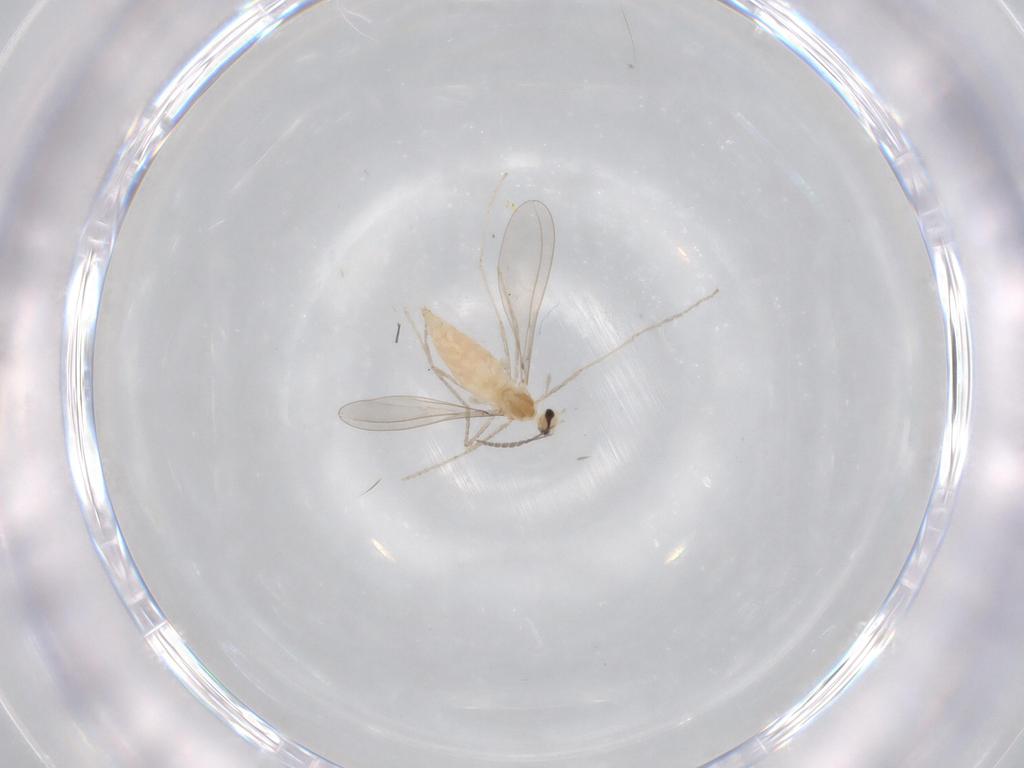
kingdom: Animalia
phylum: Arthropoda
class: Insecta
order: Diptera
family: Cecidomyiidae
